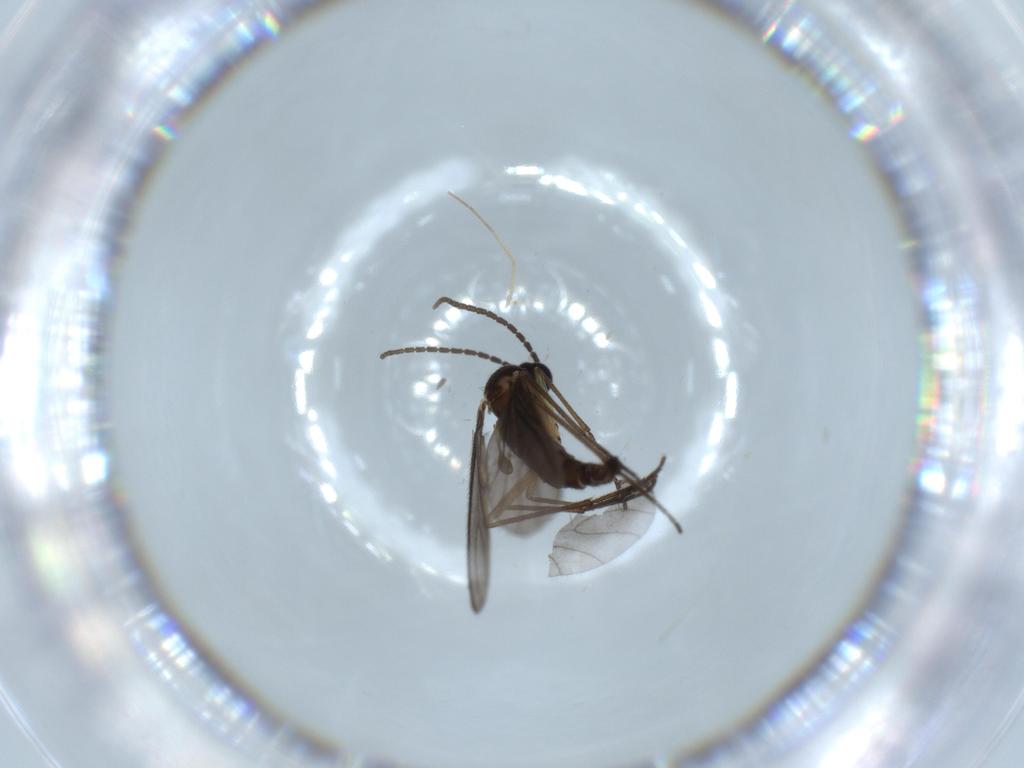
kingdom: Animalia
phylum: Arthropoda
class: Insecta
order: Diptera
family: Sciaridae
